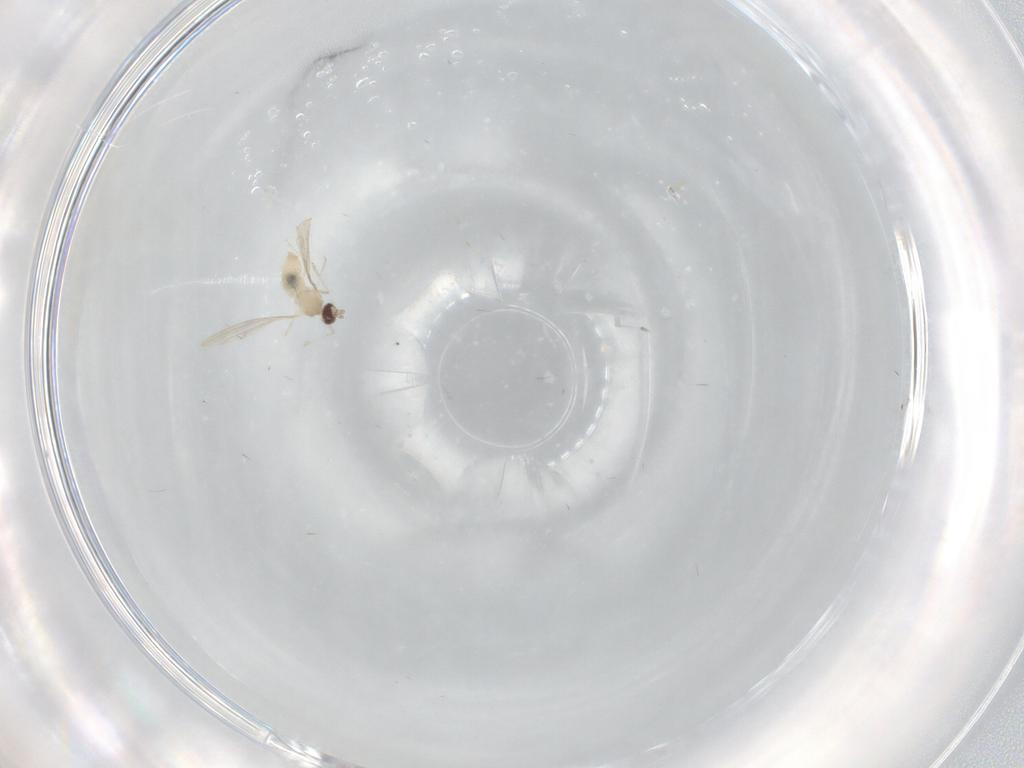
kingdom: Animalia
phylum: Arthropoda
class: Insecta
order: Diptera
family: Cecidomyiidae
